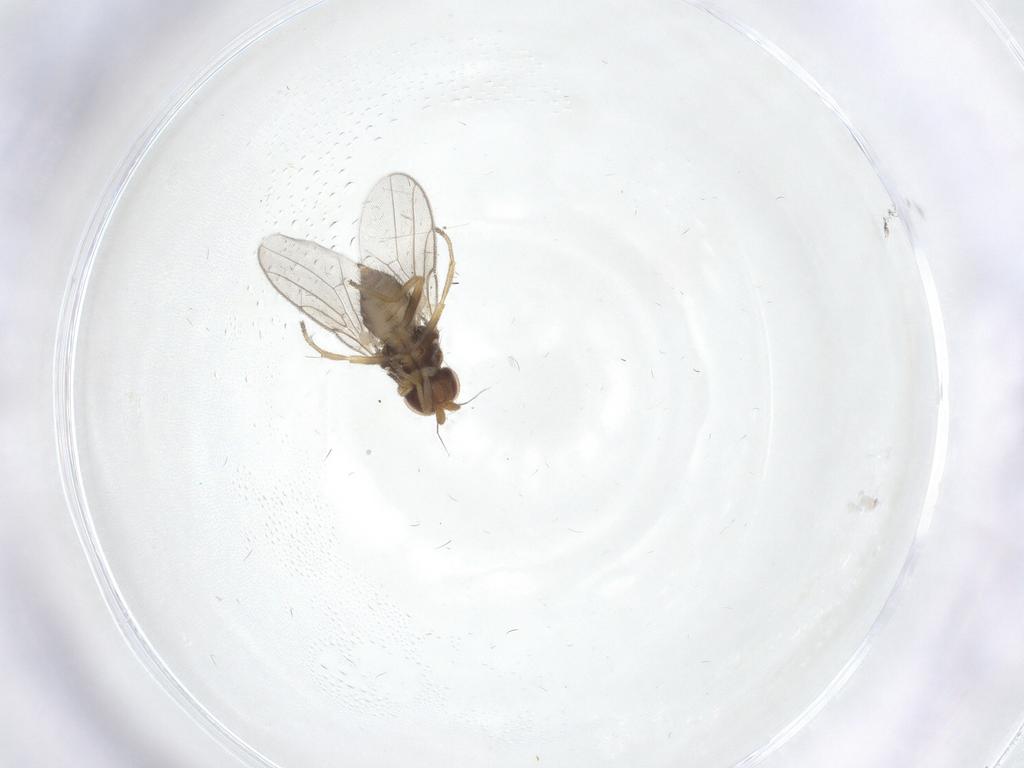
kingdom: Animalia
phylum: Arthropoda
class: Insecta
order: Diptera
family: Chloropidae
